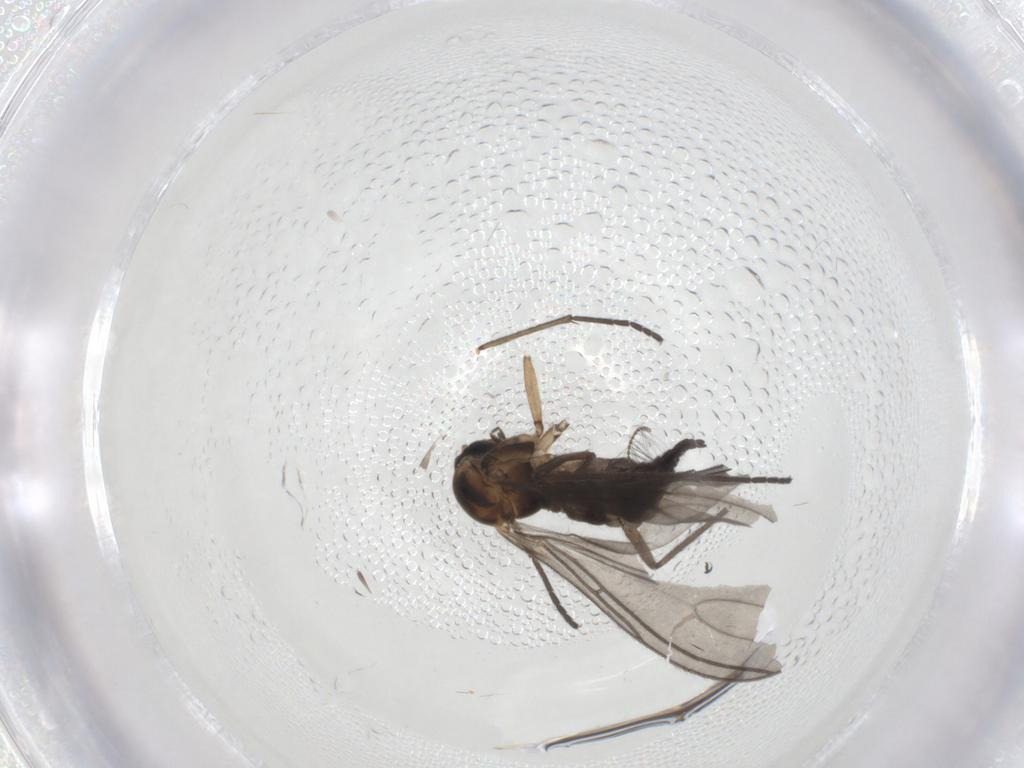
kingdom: Animalia
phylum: Arthropoda
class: Insecta
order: Diptera
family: Sciaridae
